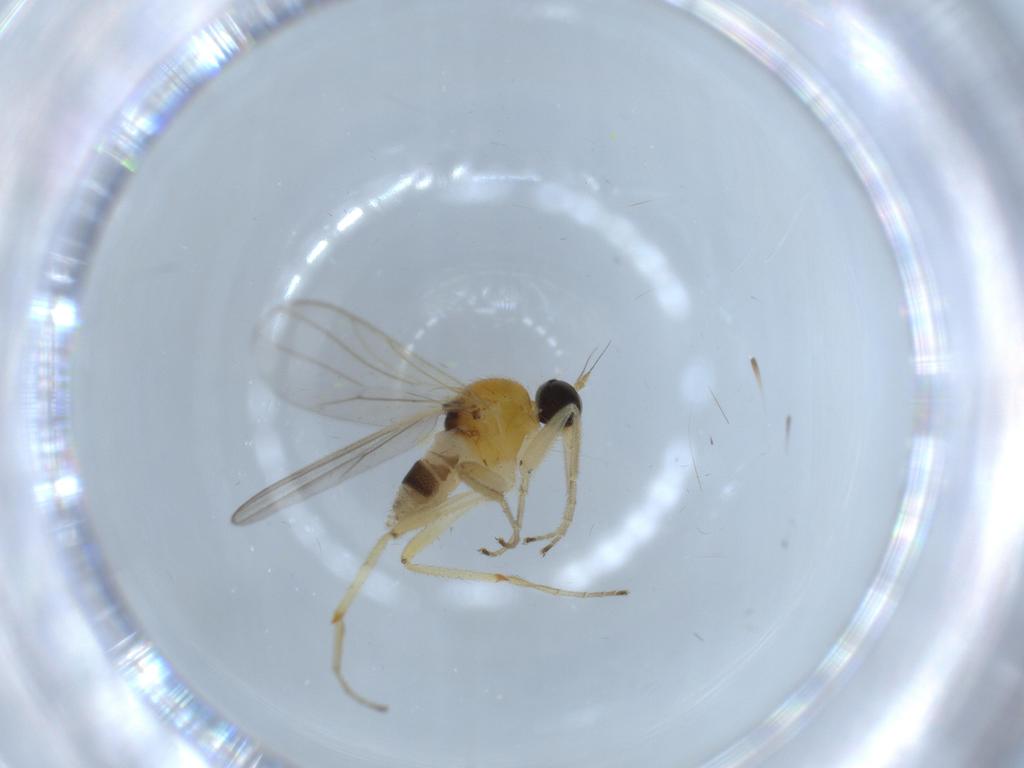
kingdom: Animalia
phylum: Arthropoda
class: Insecta
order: Diptera
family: Hybotidae
